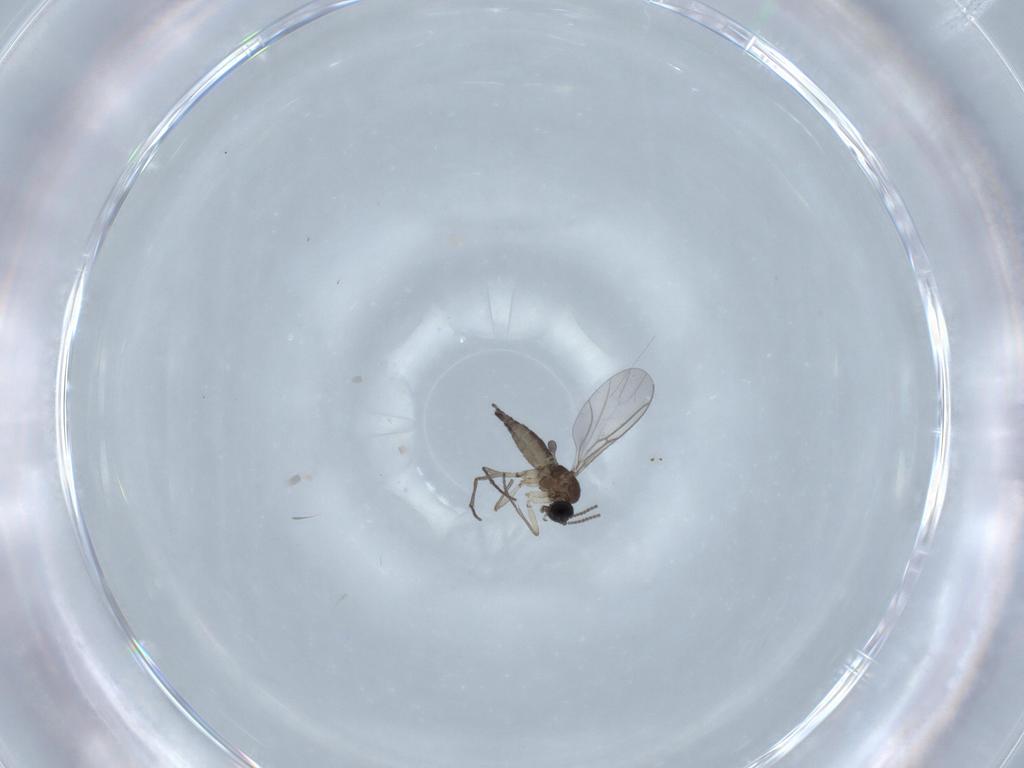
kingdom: Animalia
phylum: Arthropoda
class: Insecta
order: Diptera
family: Sciaridae
